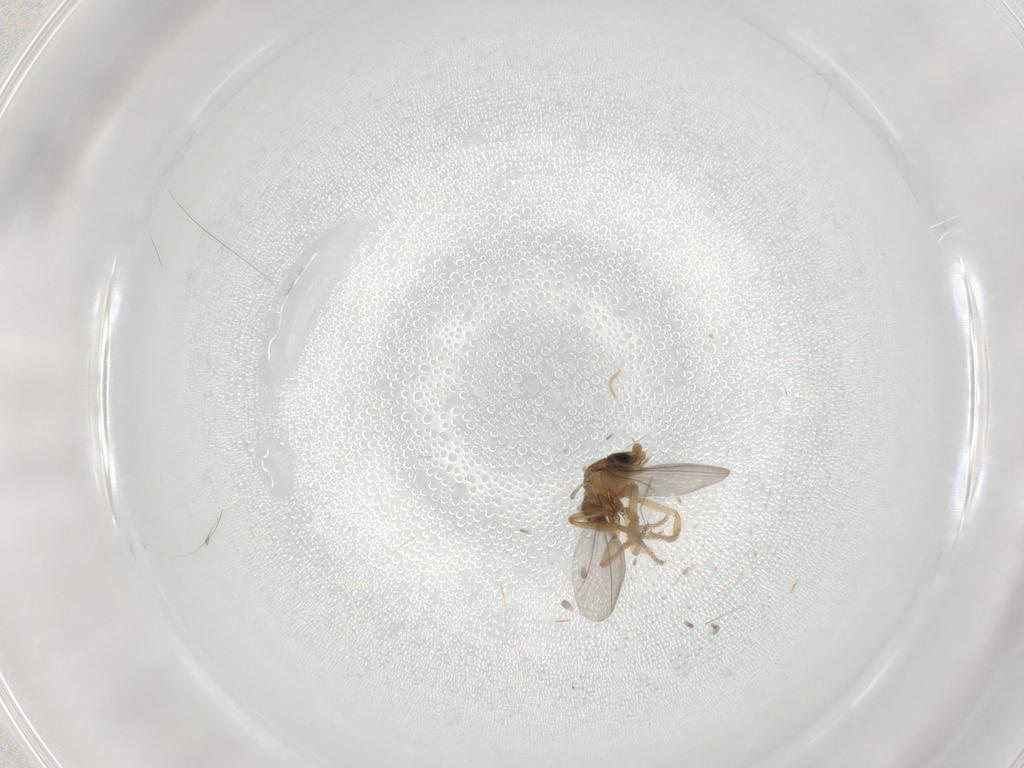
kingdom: Animalia
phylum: Arthropoda
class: Insecta
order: Diptera
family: Phoridae
